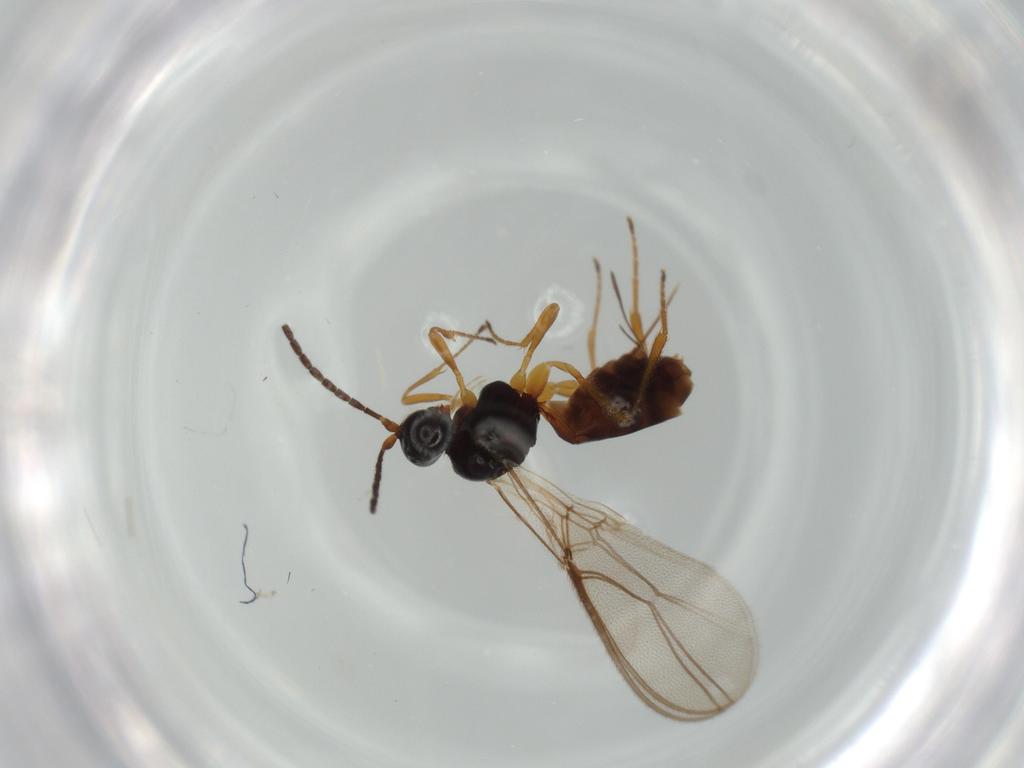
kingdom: Animalia
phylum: Arthropoda
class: Insecta
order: Hymenoptera
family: Braconidae
